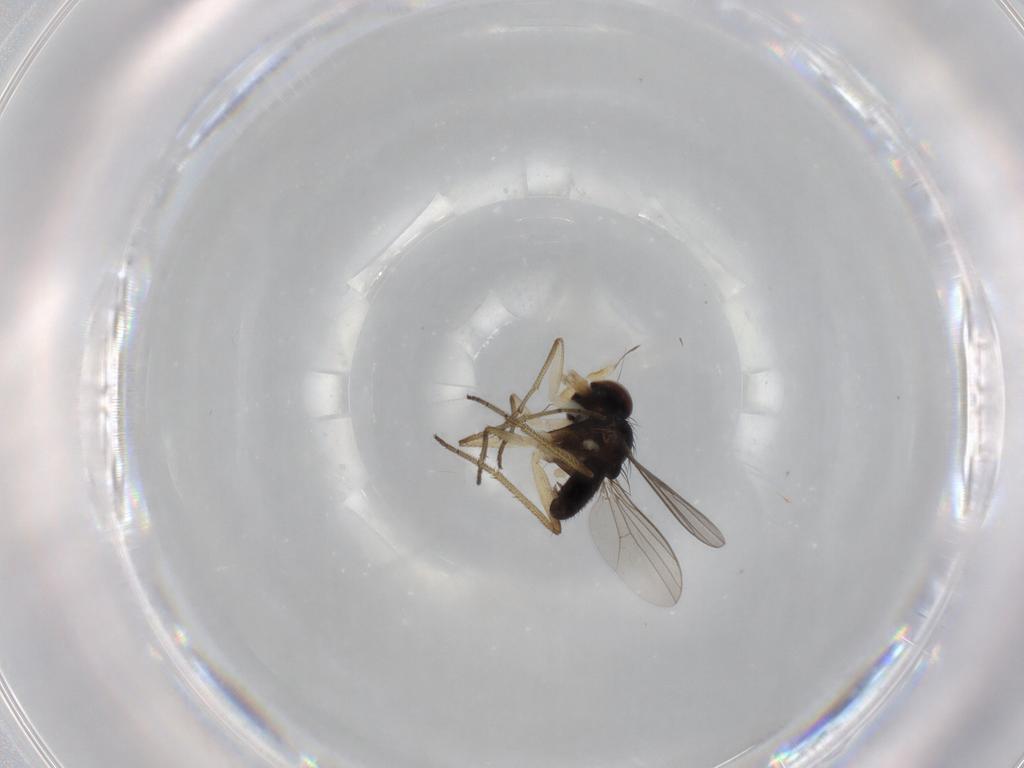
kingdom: Animalia
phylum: Arthropoda
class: Insecta
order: Diptera
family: Dolichopodidae
